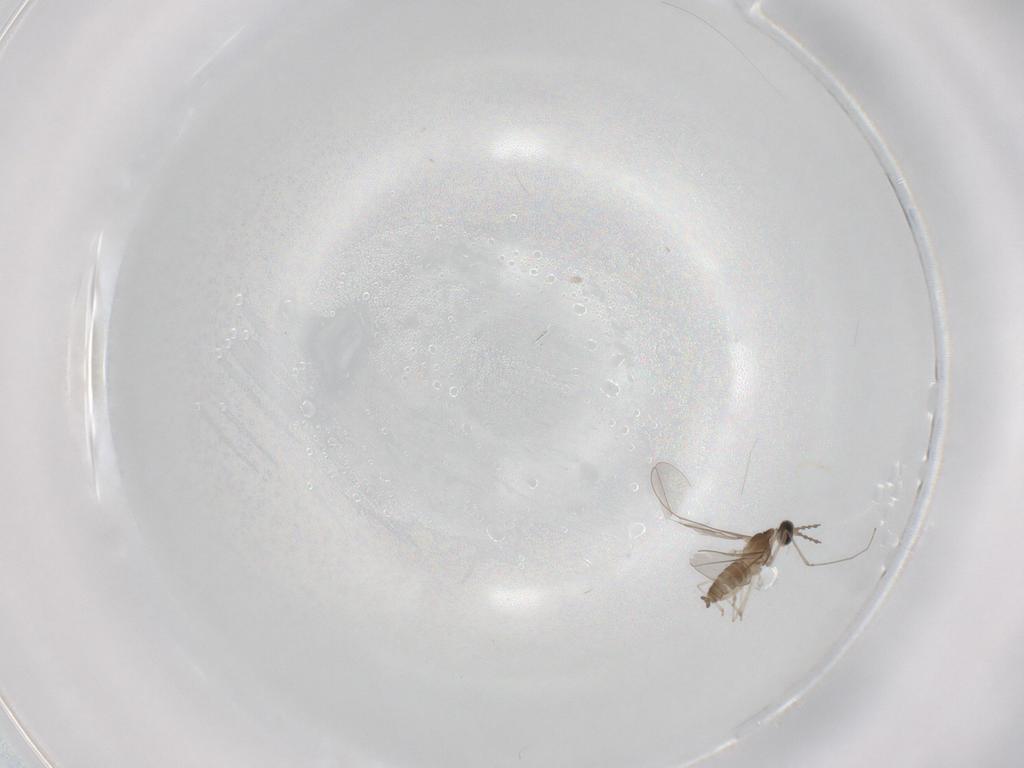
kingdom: Animalia
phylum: Arthropoda
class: Insecta
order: Diptera
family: Cecidomyiidae
